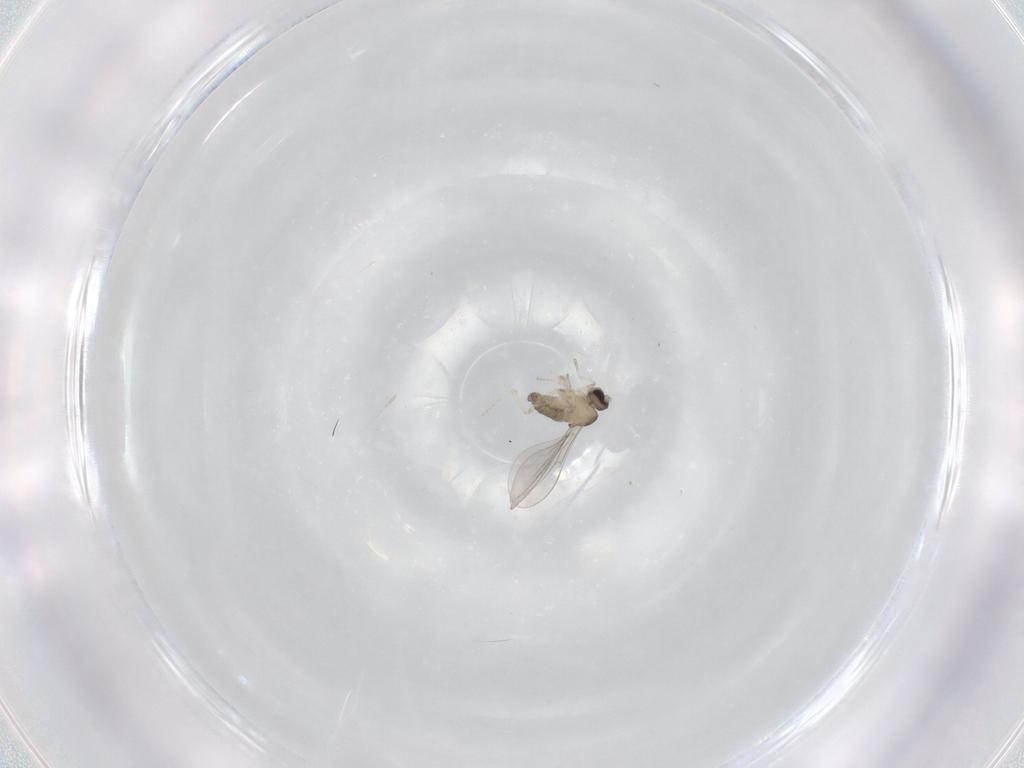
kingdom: Animalia
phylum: Arthropoda
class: Insecta
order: Diptera
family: Cecidomyiidae
